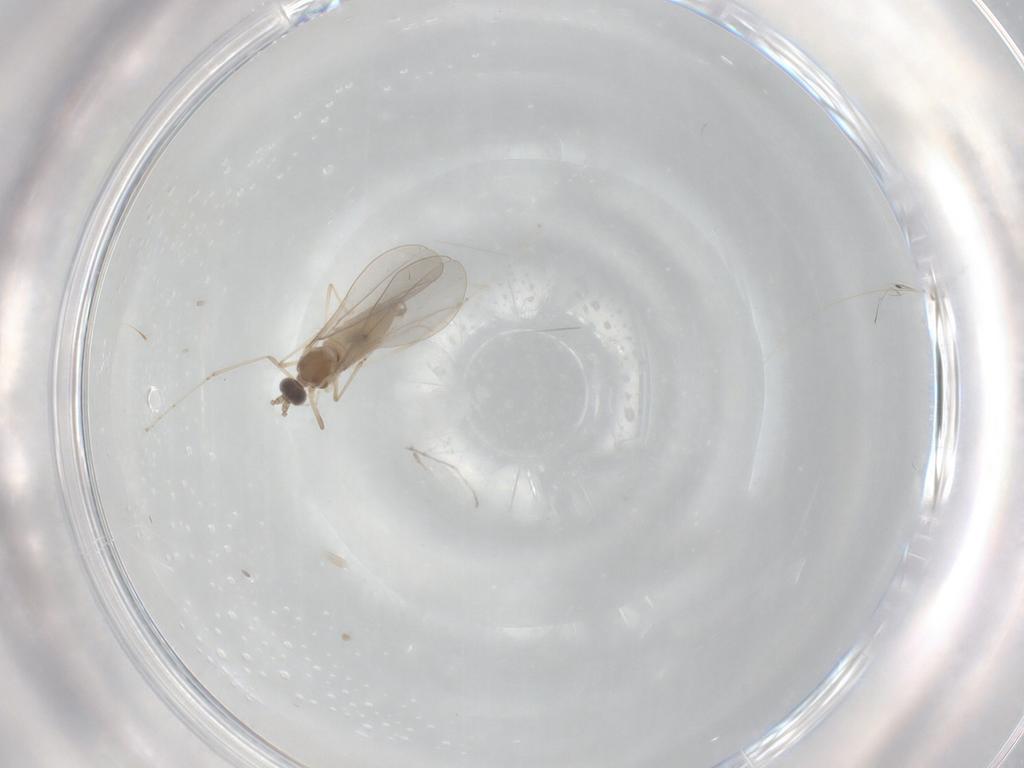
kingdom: Animalia
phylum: Arthropoda
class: Insecta
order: Diptera
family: Cecidomyiidae
